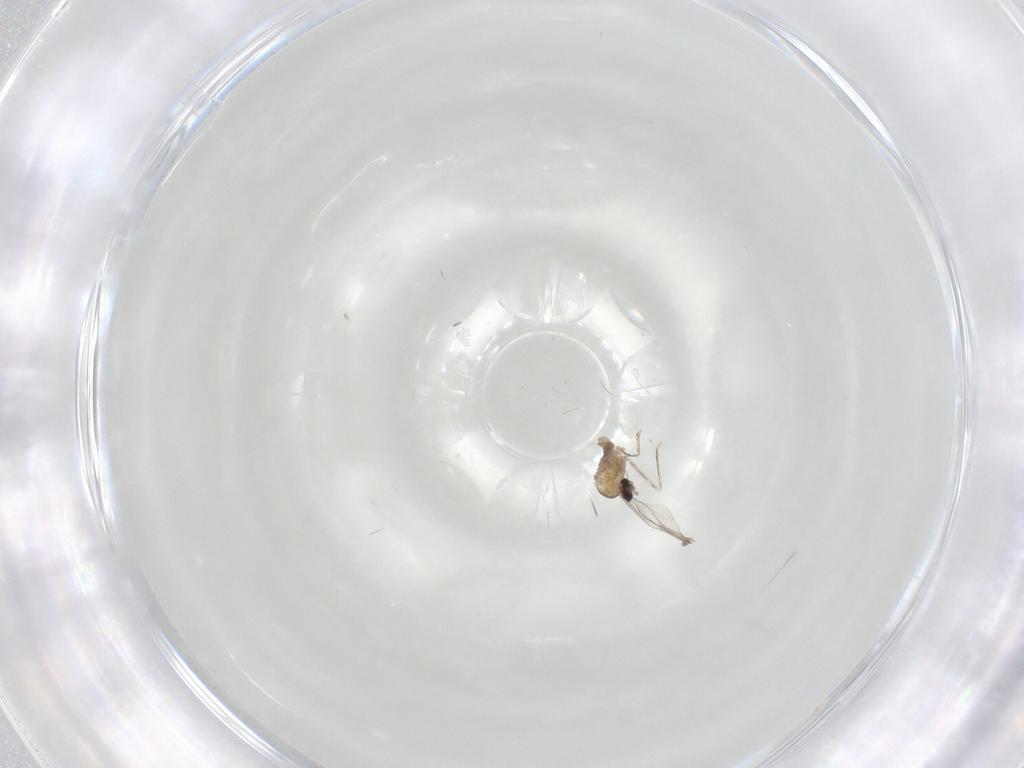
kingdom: Animalia
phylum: Arthropoda
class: Insecta
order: Diptera
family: Cecidomyiidae
